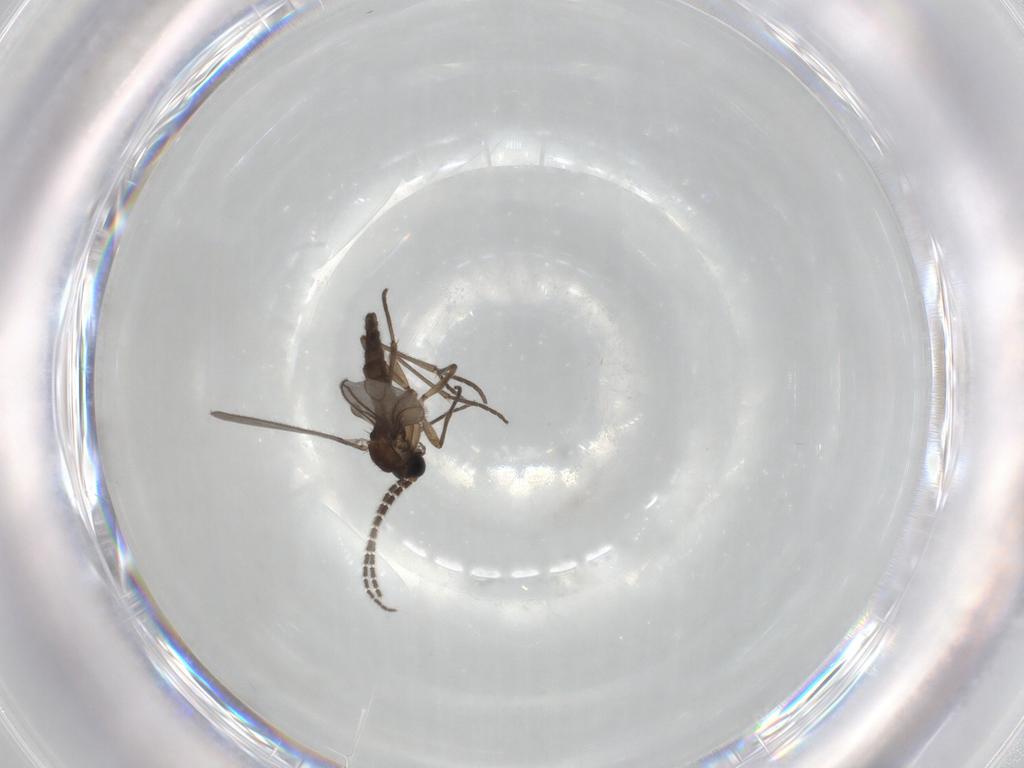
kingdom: Animalia
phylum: Arthropoda
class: Insecta
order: Diptera
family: Sciaridae
